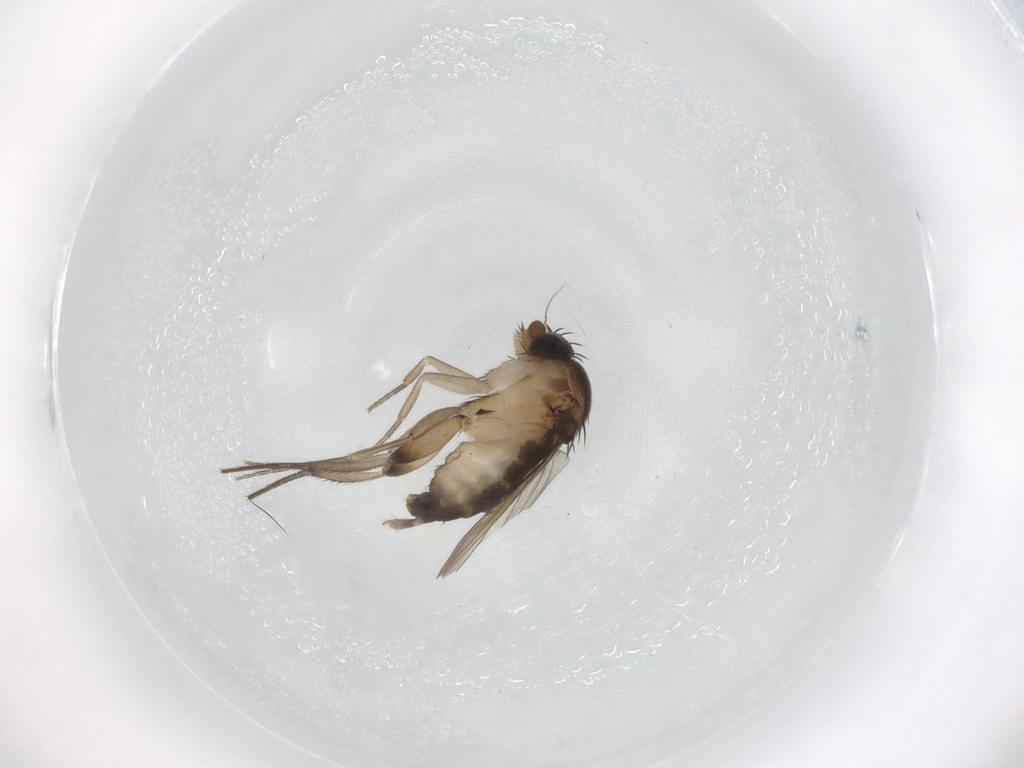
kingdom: Animalia
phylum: Arthropoda
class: Insecta
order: Diptera
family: Phoridae
